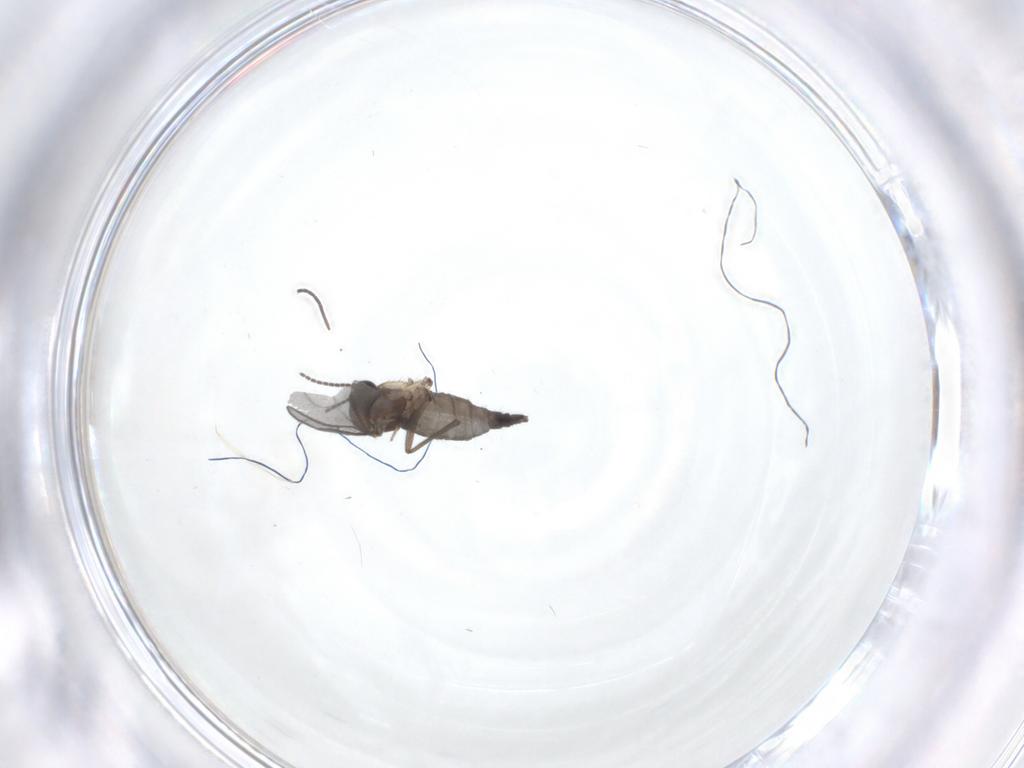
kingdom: Animalia
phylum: Arthropoda
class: Insecta
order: Diptera
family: Sciaridae
